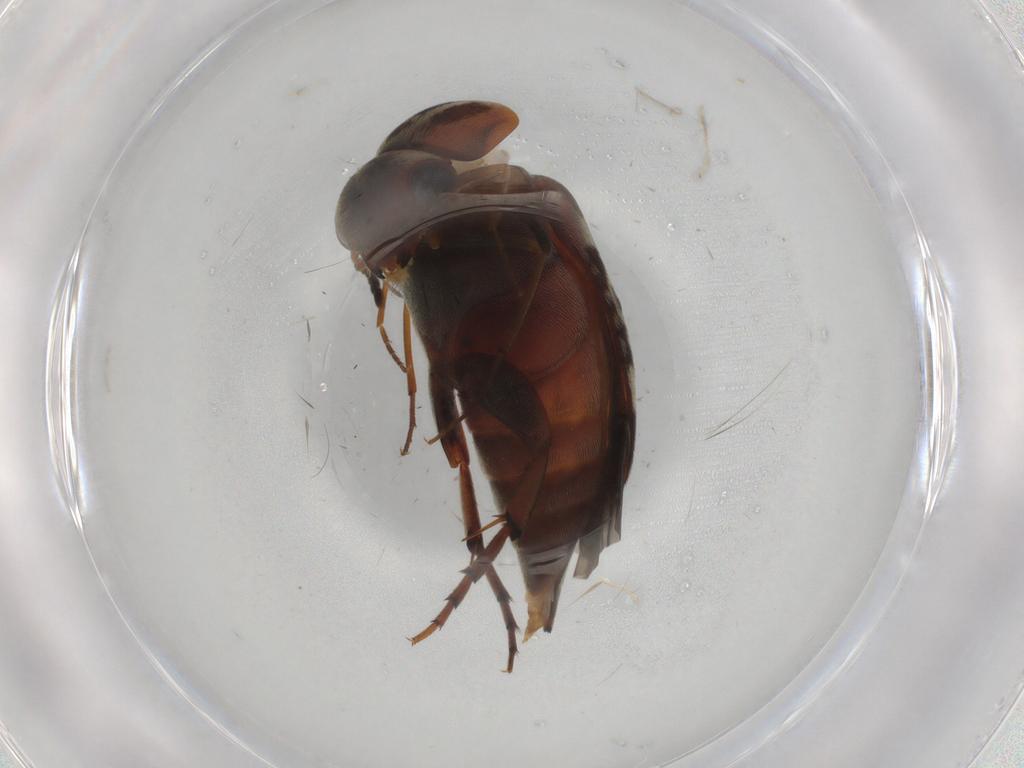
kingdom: Animalia
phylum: Arthropoda
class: Insecta
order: Coleoptera
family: Mordellidae
